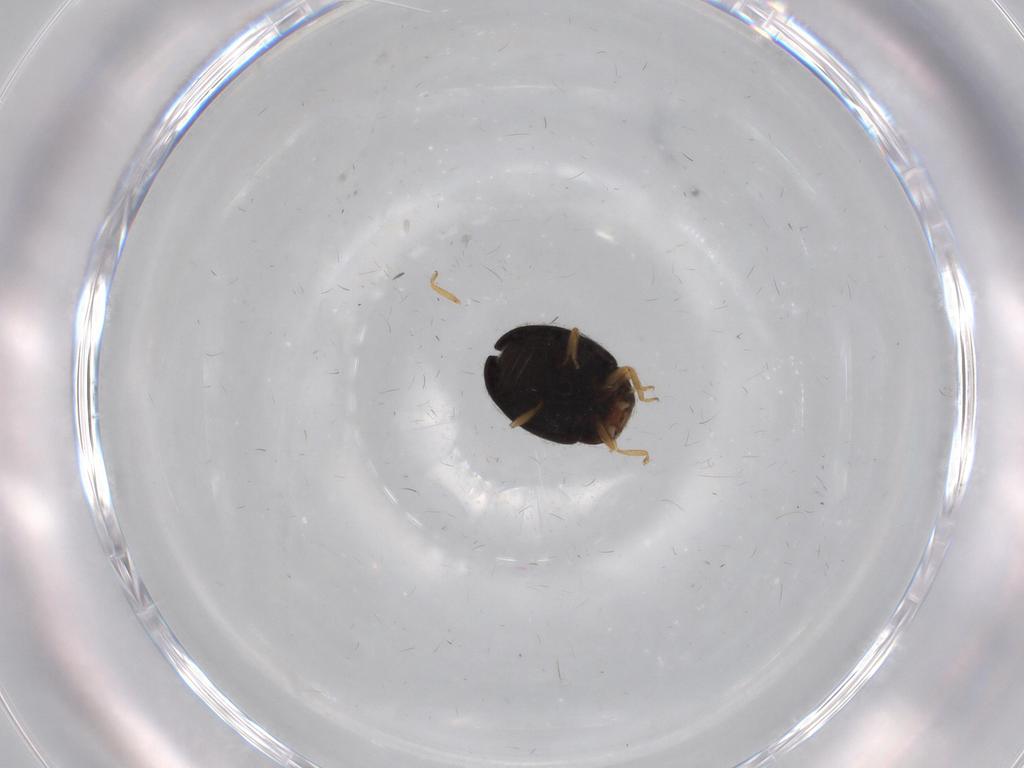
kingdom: Animalia
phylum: Arthropoda
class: Insecta
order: Coleoptera
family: Coccinellidae
